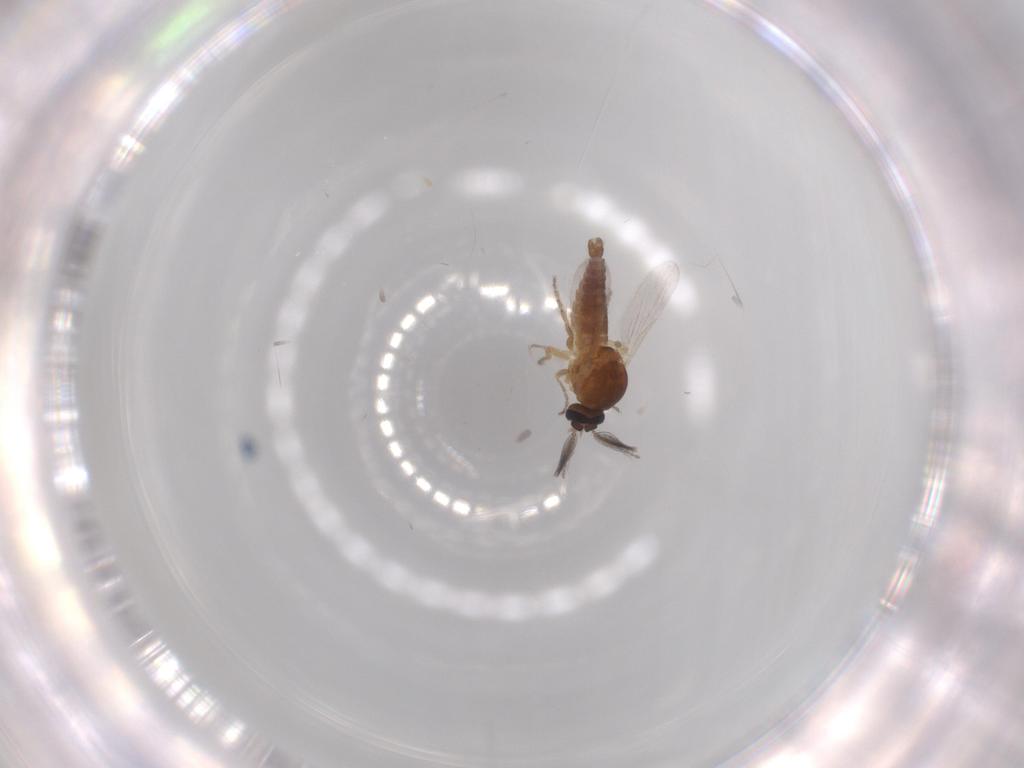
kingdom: Animalia
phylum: Arthropoda
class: Insecta
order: Diptera
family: Ceratopogonidae
